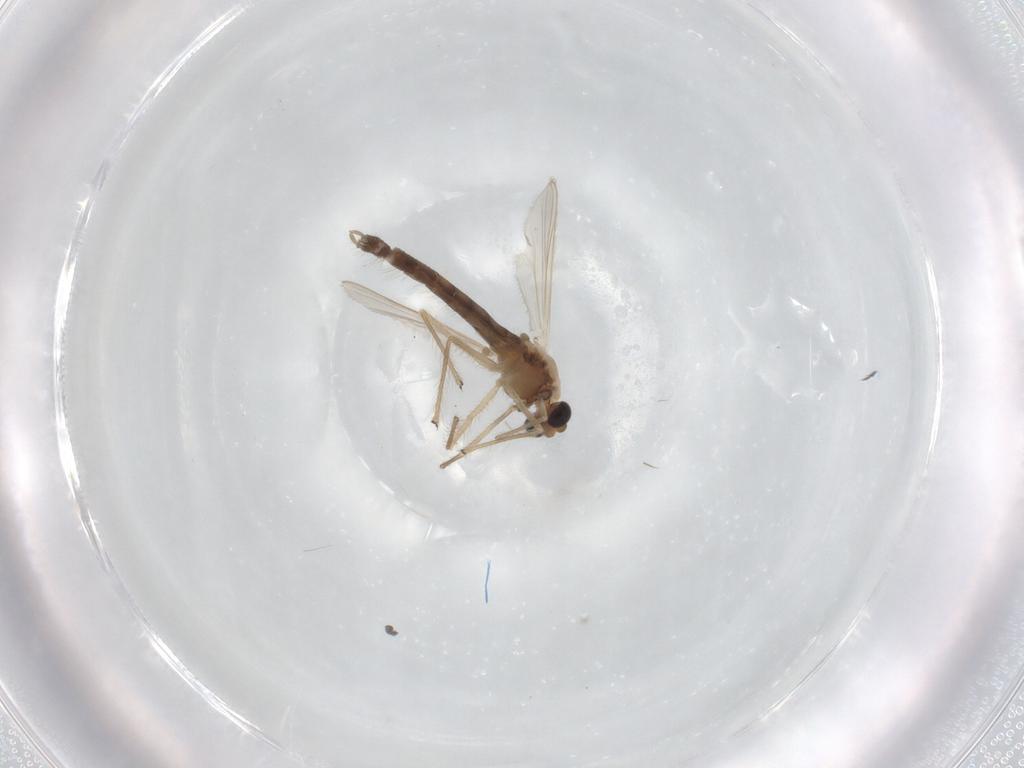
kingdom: Animalia
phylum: Arthropoda
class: Insecta
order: Diptera
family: Chironomidae
